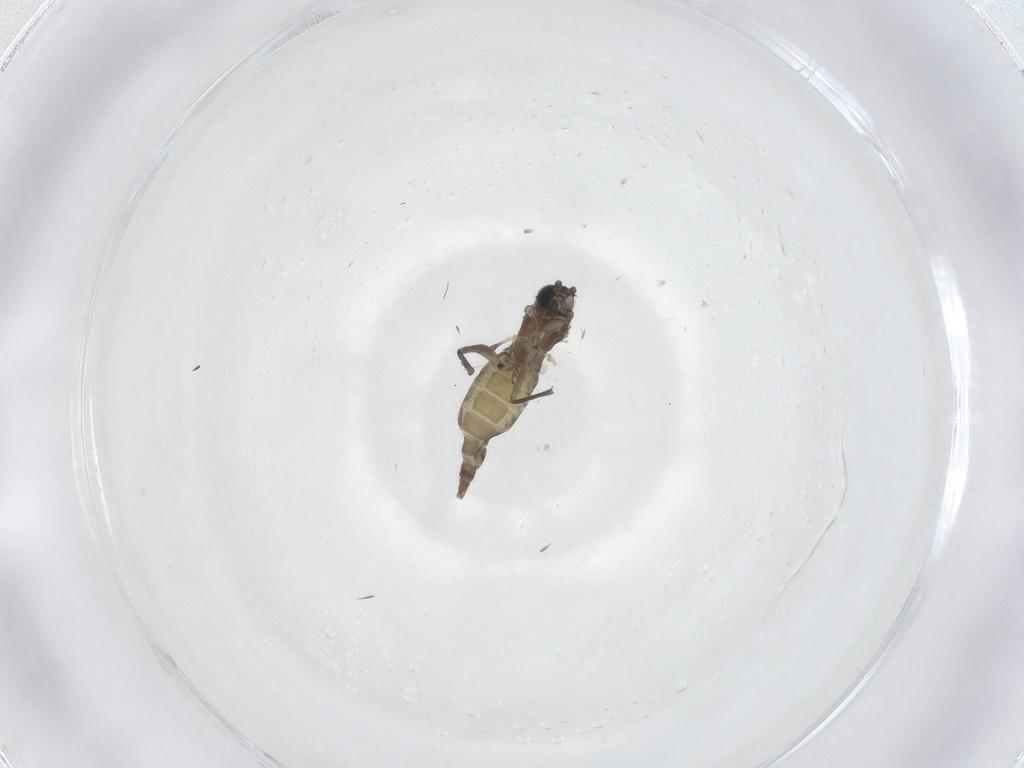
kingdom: Animalia
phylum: Arthropoda
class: Insecta
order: Diptera
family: Sciaridae
